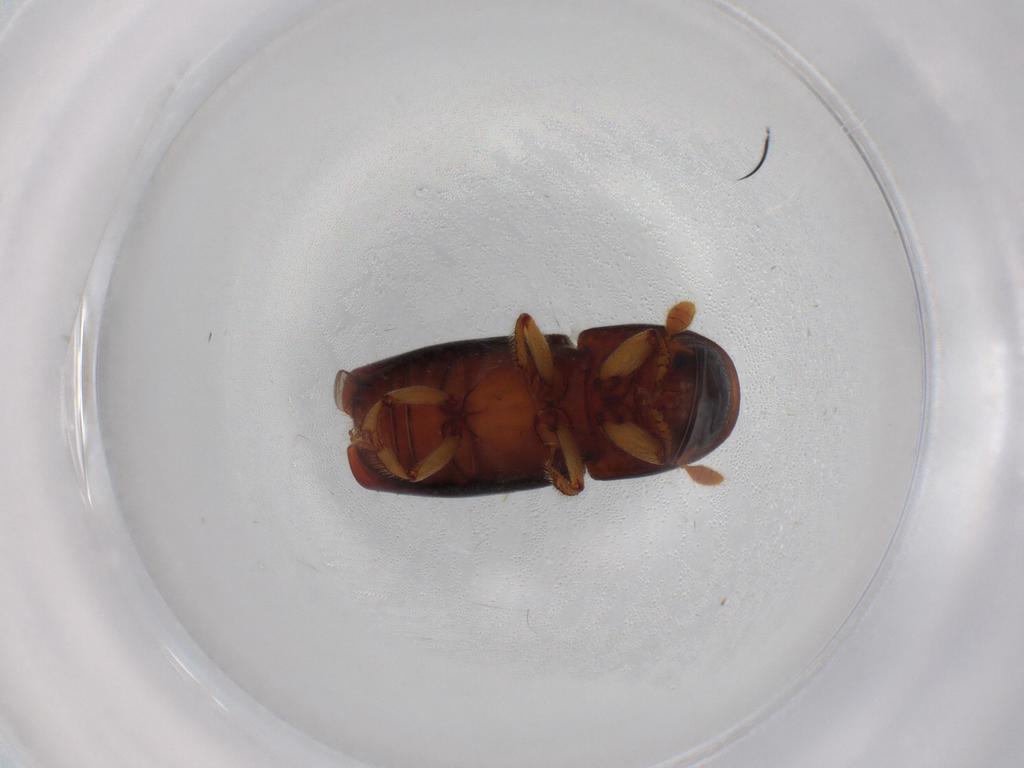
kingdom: Animalia
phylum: Arthropoda
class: Insecta
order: Coleoptera
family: Curculionidae
